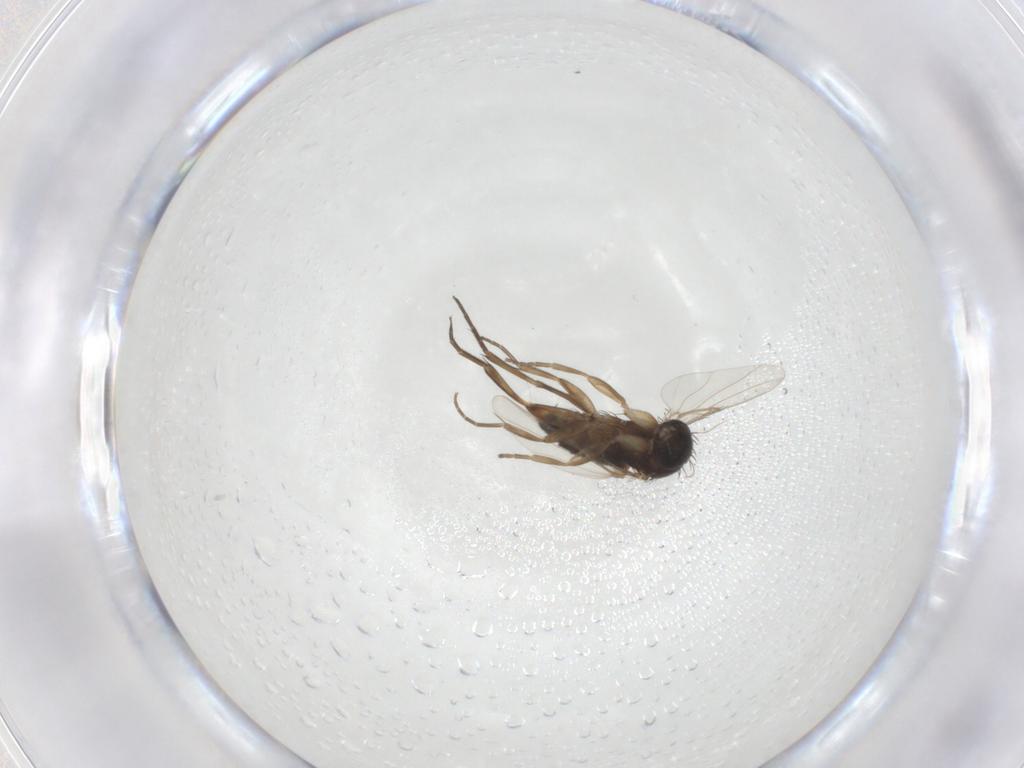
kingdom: Animalia
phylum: Arthropoda
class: Insecta
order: Diptera
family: Phoridae
